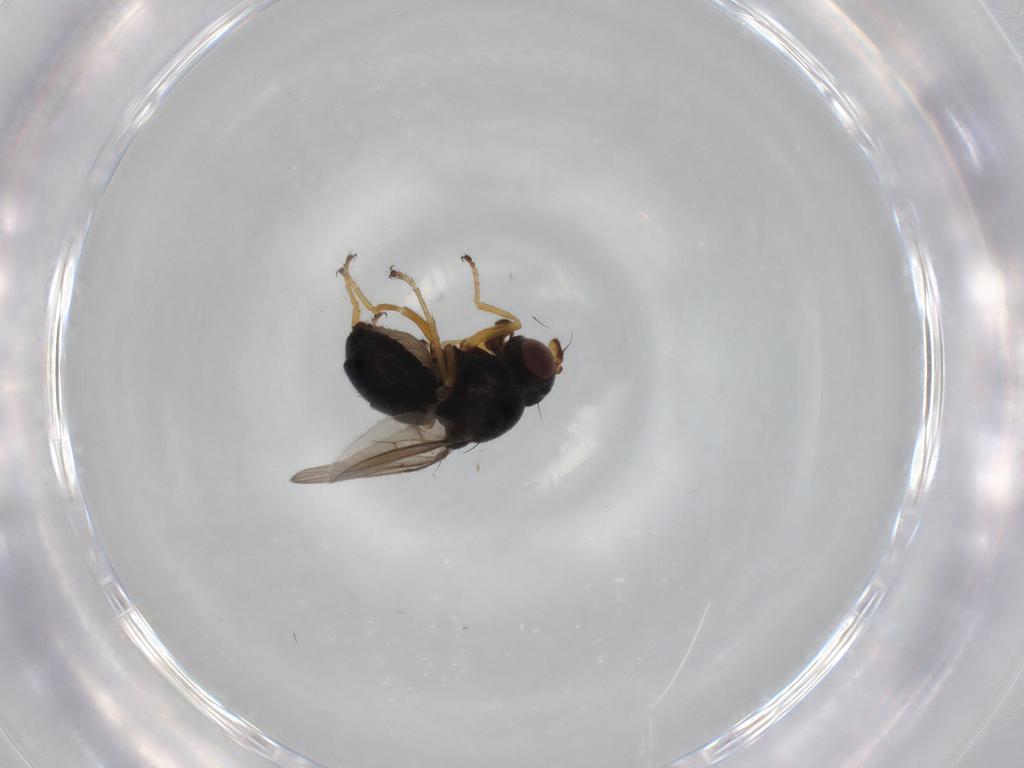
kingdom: Animalia
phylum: Arthropoda
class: Insecta
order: Diptera
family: Ephydridae
